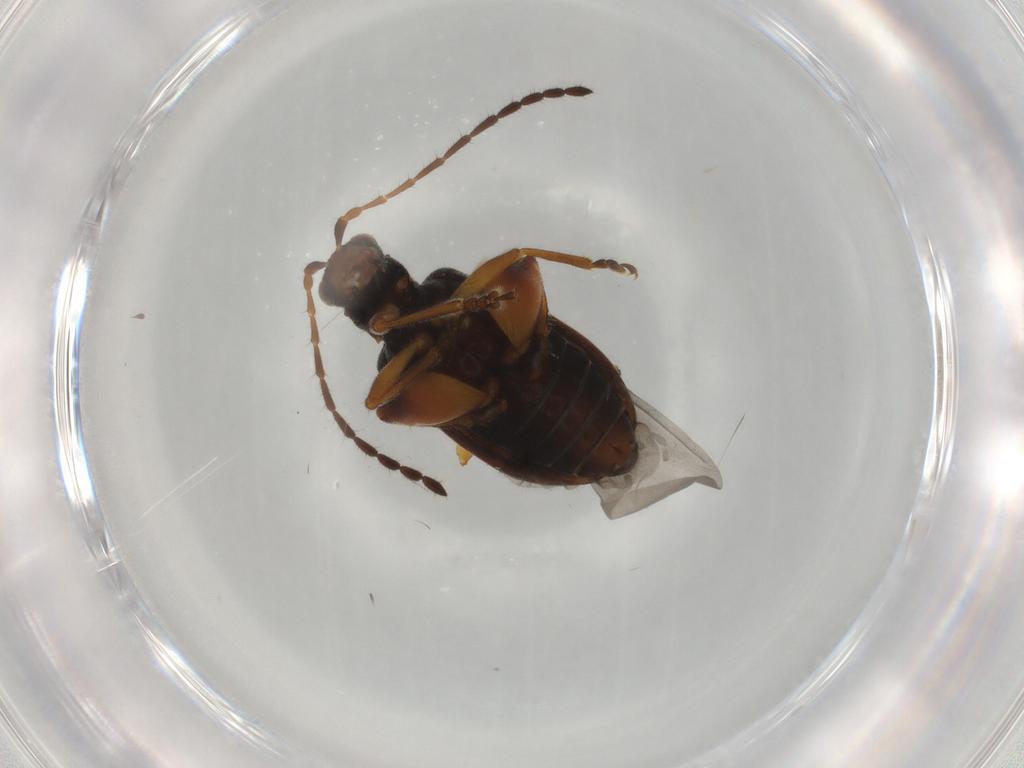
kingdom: Animalia
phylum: Arthropoda
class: Insecta
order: Coleoptera
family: Chrysomelidae
